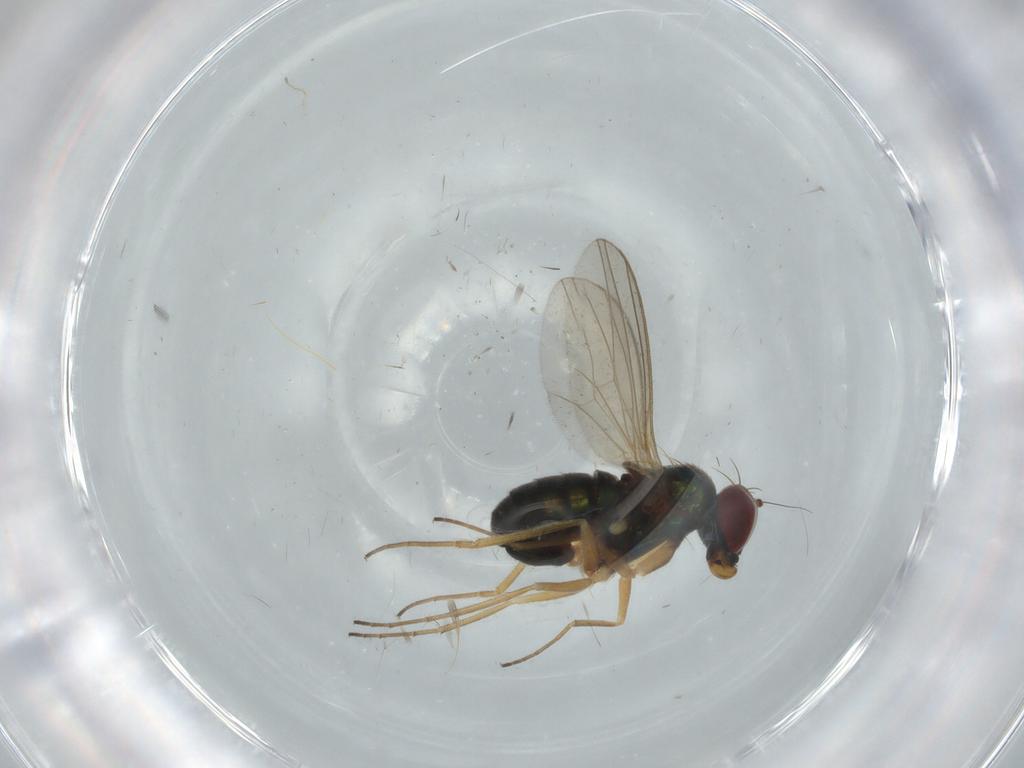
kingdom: Animalia
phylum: Arthropoda
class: Insecta
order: Diptera
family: Dolichopodidae
